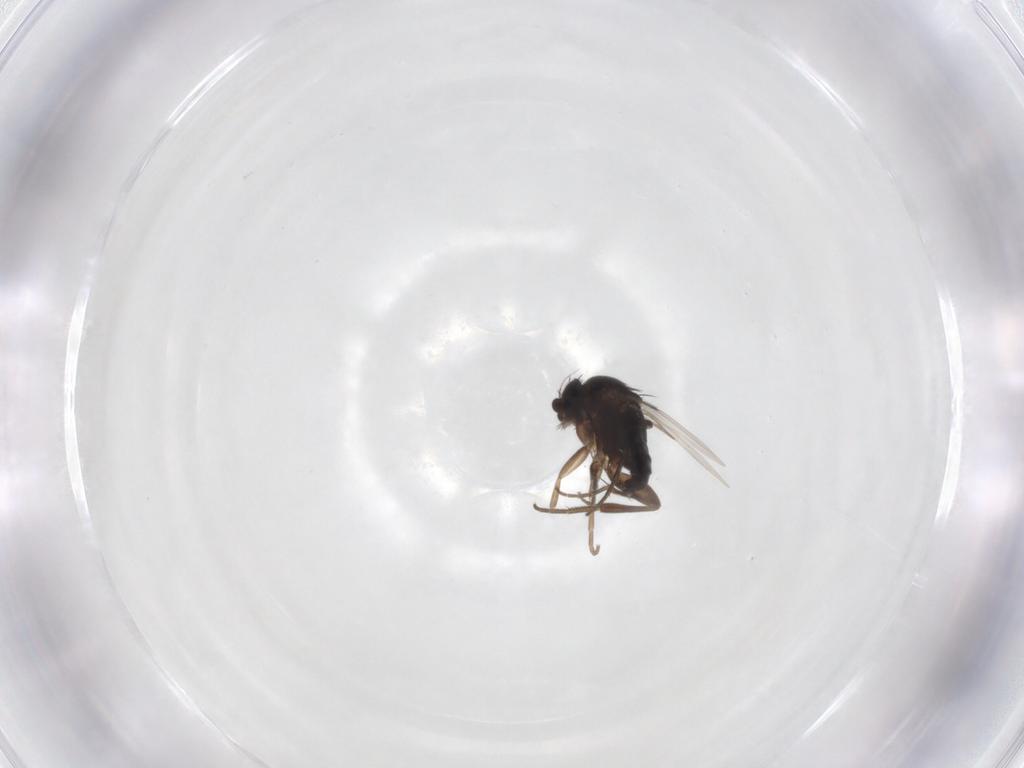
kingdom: Animalia
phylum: Arthropoda
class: Insecta
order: Diptera
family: Phoridae
